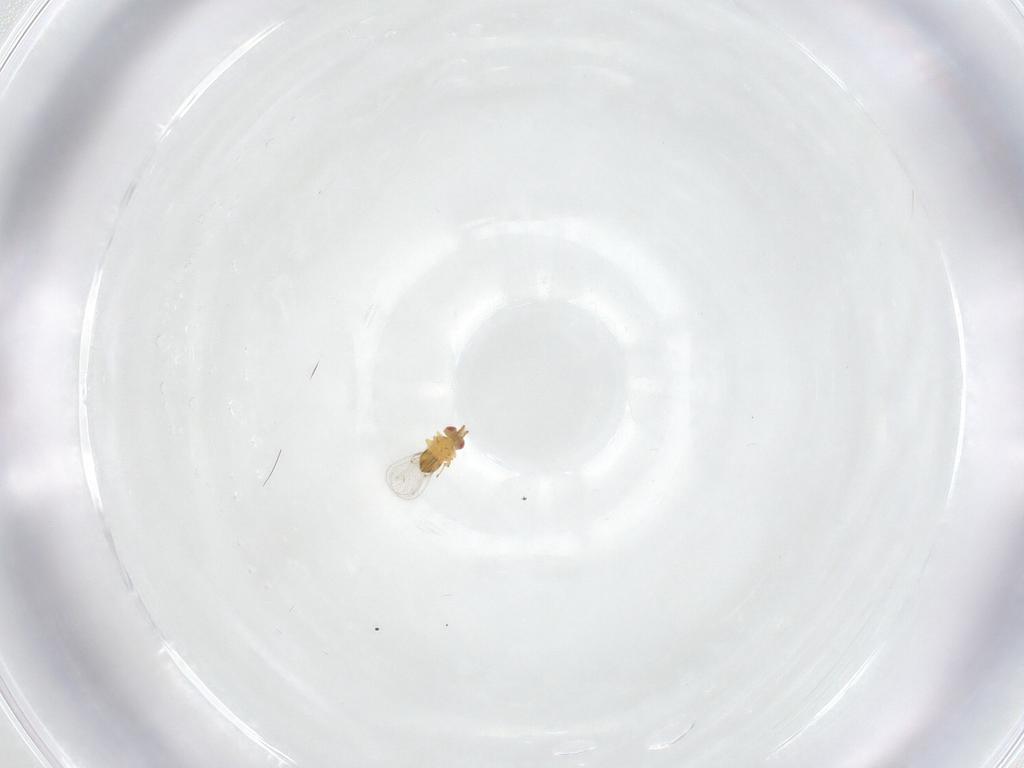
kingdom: Animalia
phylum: Arthropoda
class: Insecta
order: Hymenoptera
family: Trichogrammatidae
